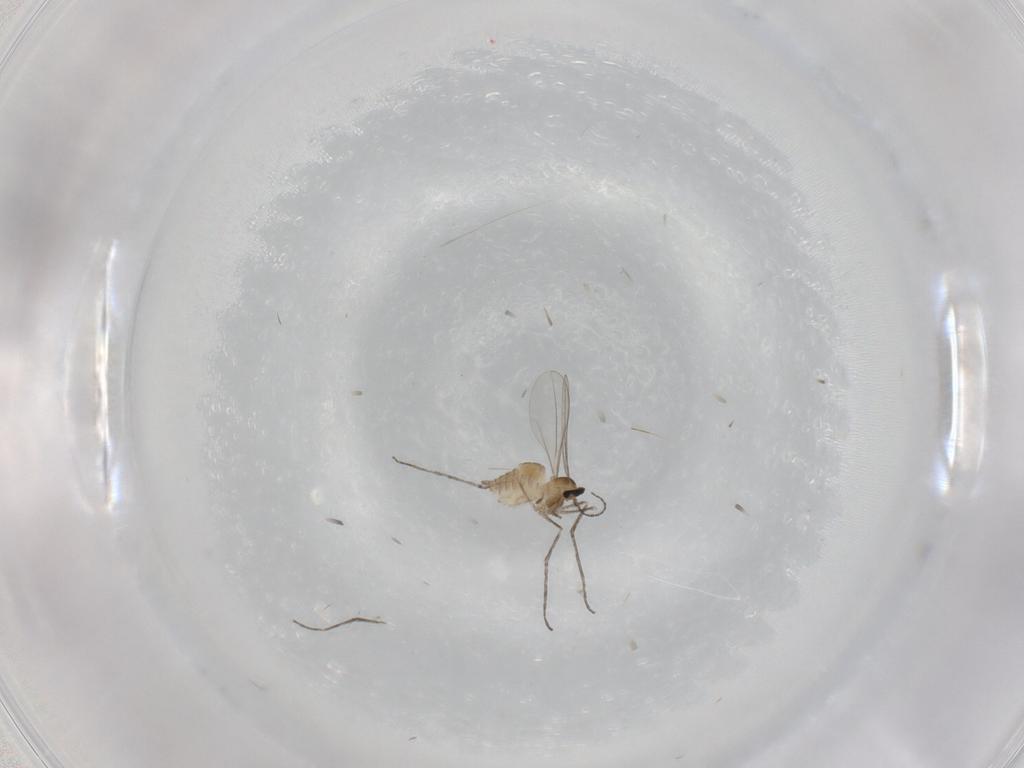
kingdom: Animalia
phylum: Arthropoda
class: Insecta
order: Diptera
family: Cecidomyiidae
